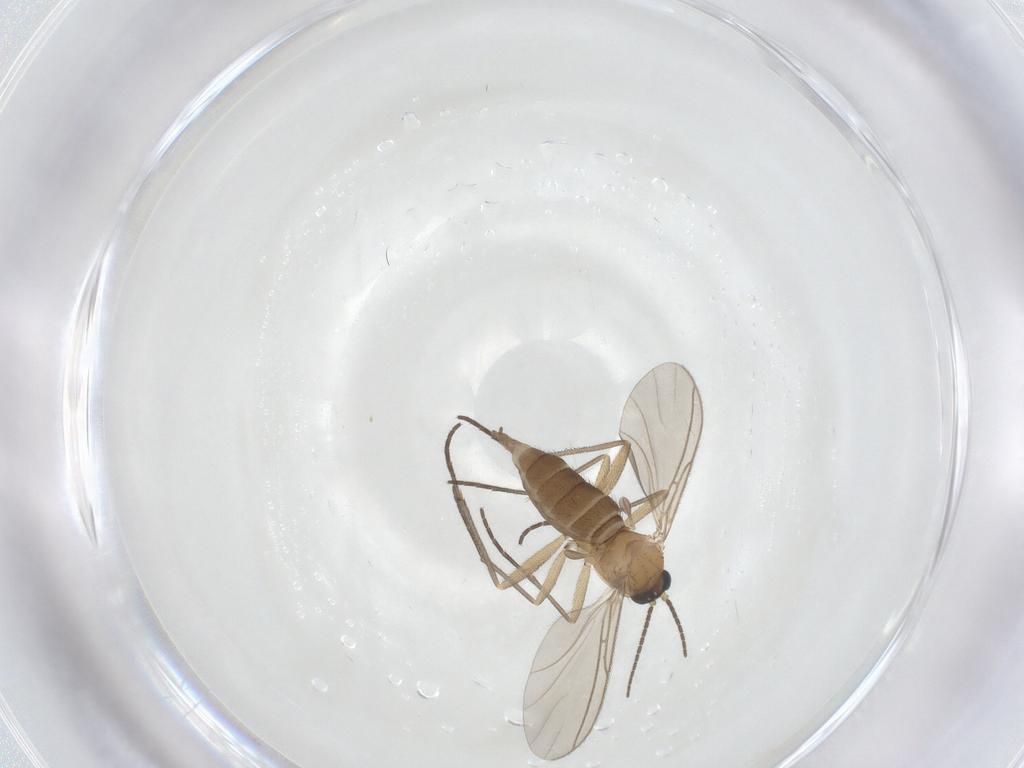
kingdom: Animalia
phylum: Arthropoda
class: Insecta
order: Diptera
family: Sciaridae
